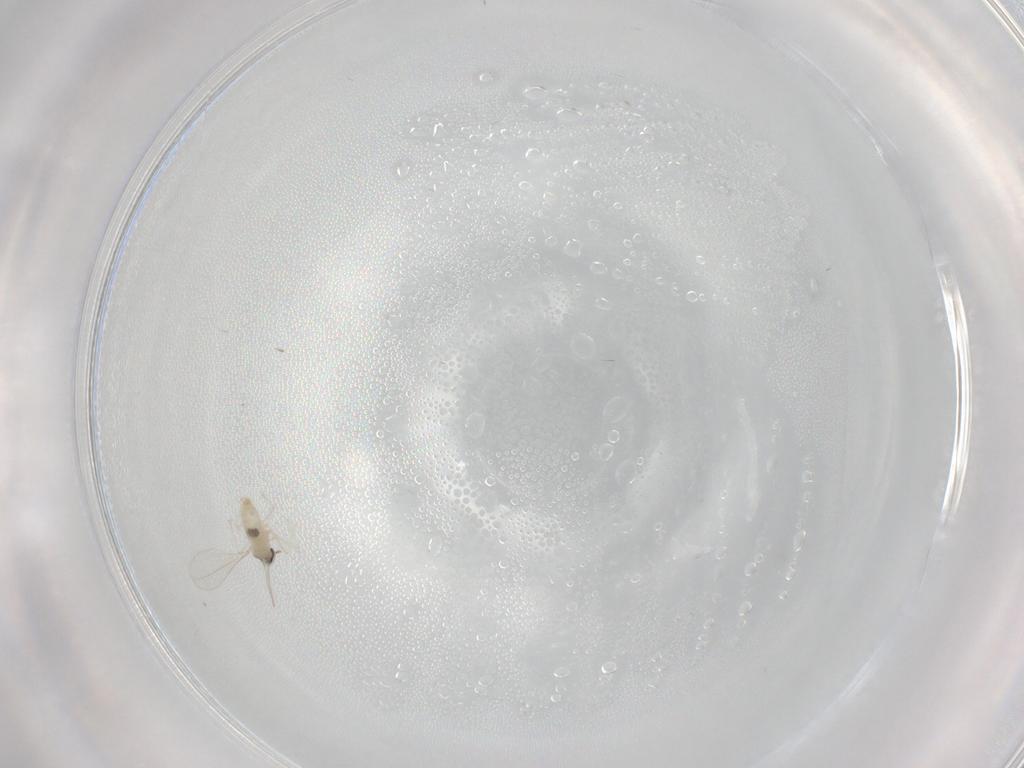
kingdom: Animalia
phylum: Arthropoda
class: Insecta
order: Diptera
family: Cecidomyiidae
